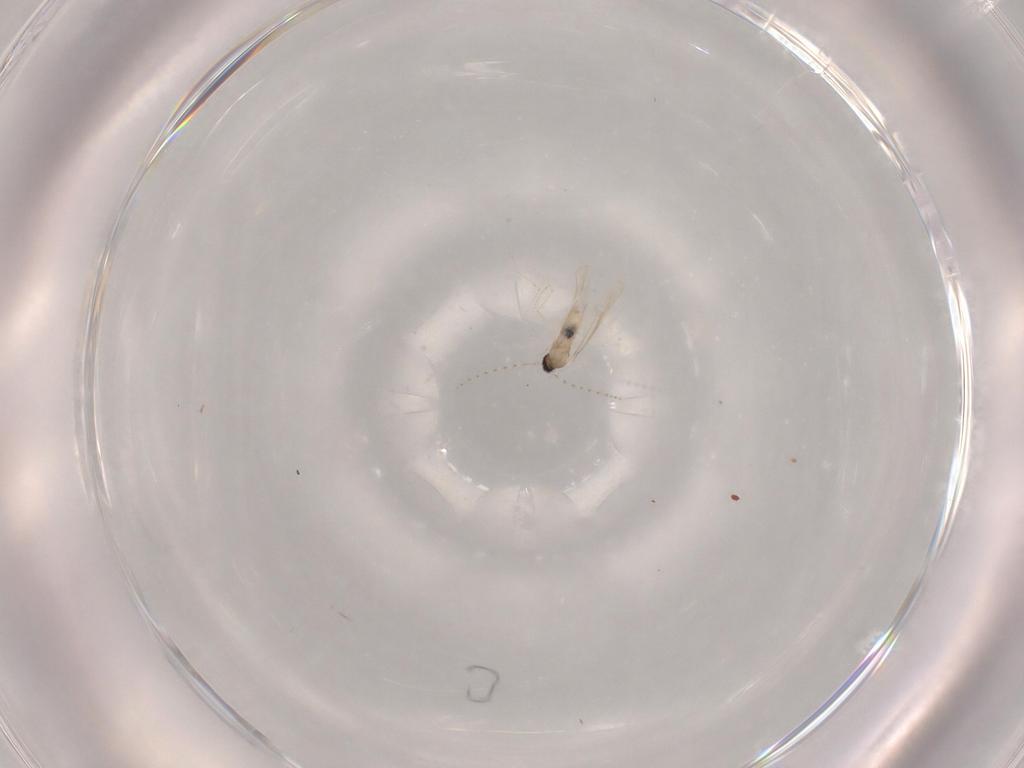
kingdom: Animalia
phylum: Arthropoda
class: Insecta
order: Diptera
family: Cecidomyiidae
